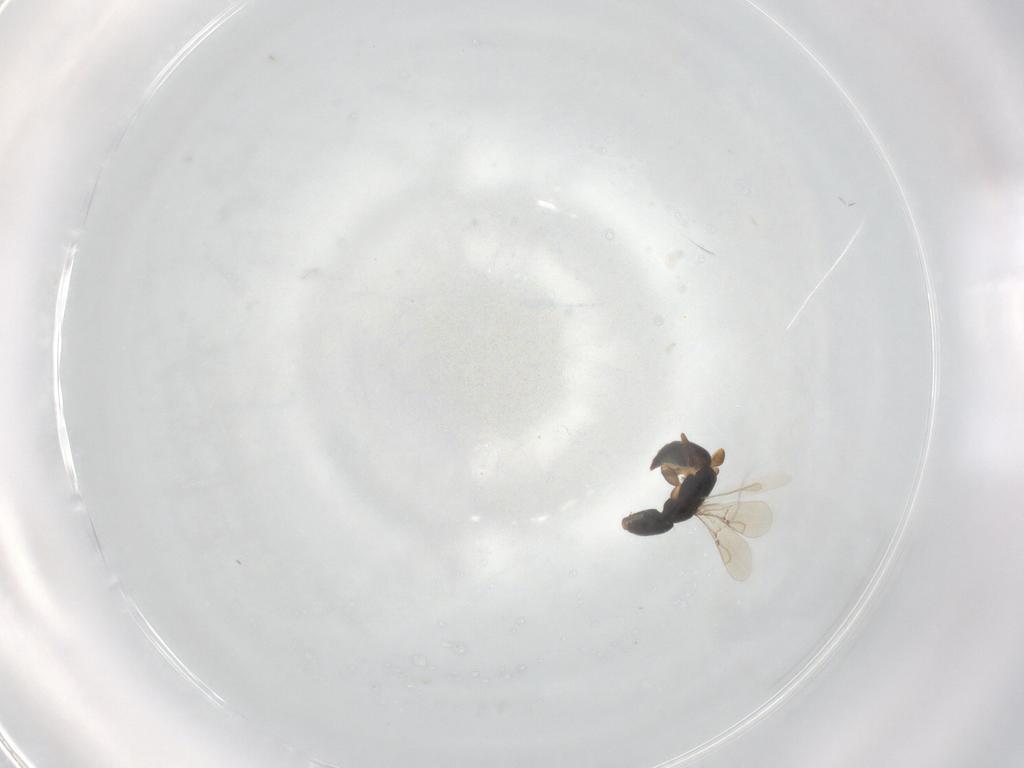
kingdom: Animalia
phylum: Arthropoda
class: Insecta
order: Hymenoptera
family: Bethylidae
